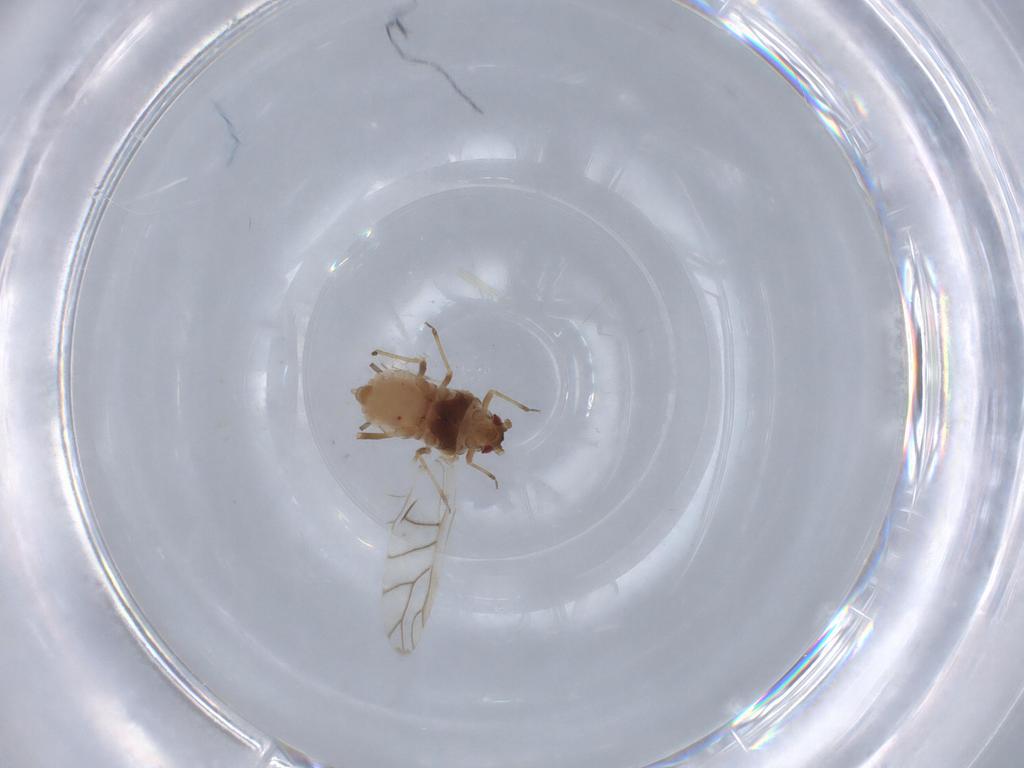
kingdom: Animalia
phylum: Arthropoda
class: Insecta
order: Hemiptera
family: Aphididae
